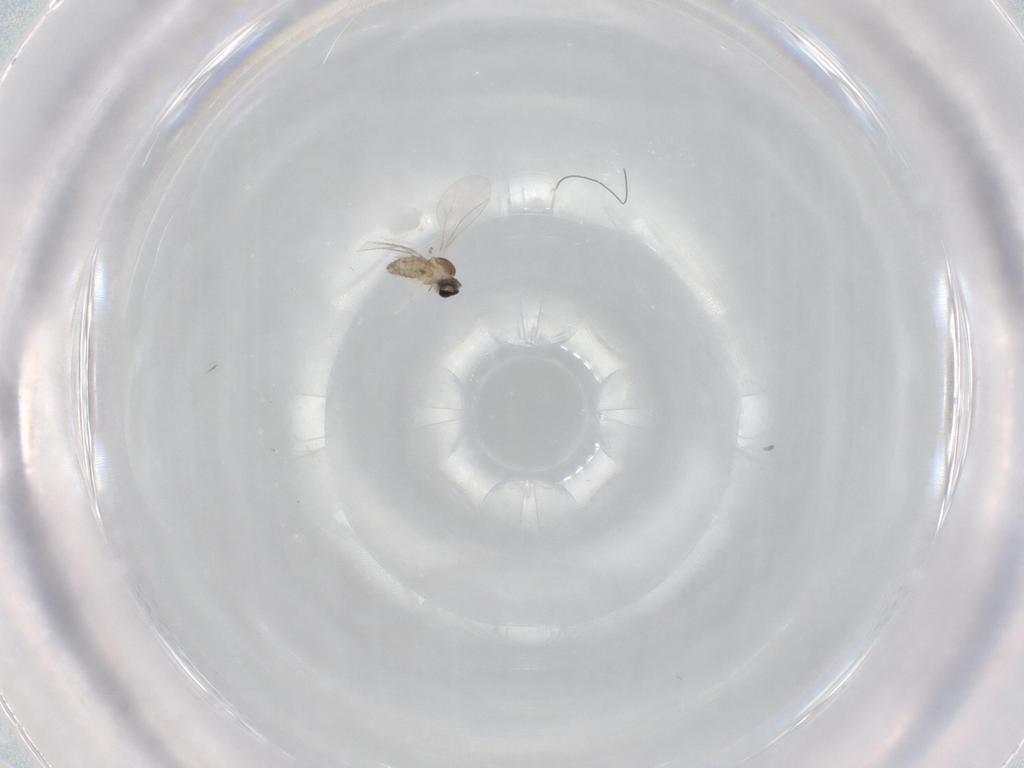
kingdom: Animalia
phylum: Arthropoda
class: Insecta
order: Diptera
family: Cecidomyiidae
